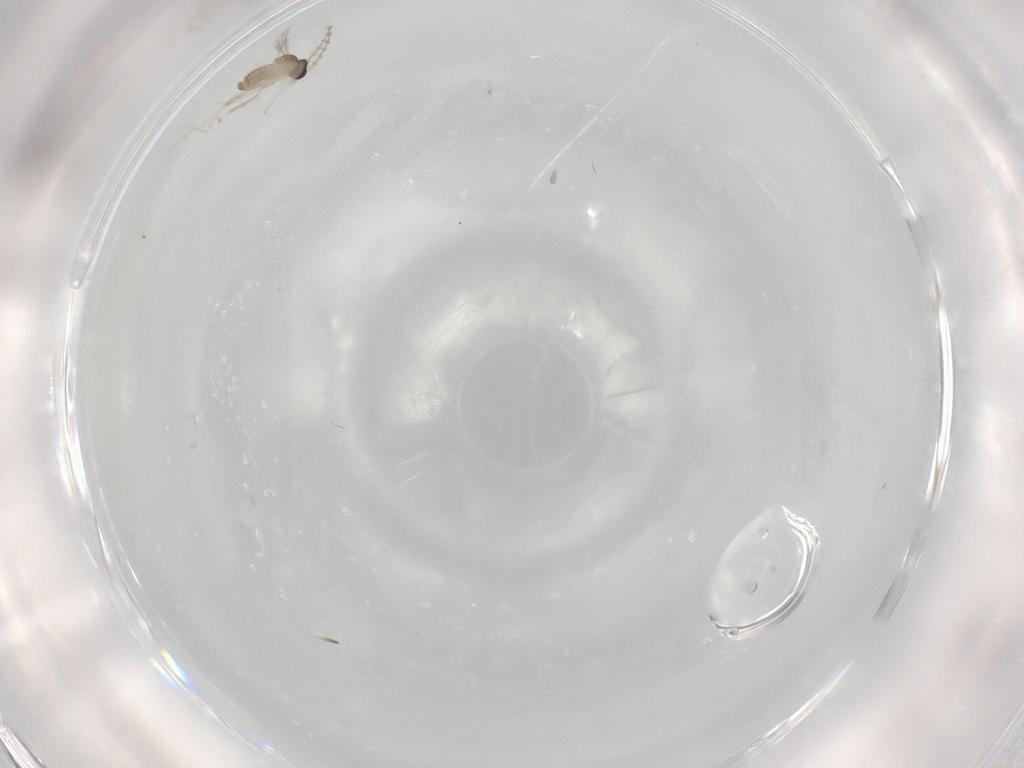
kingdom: Animalia
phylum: Arthropoda
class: Insecta
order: Diptera
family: Cecidomyiidae
